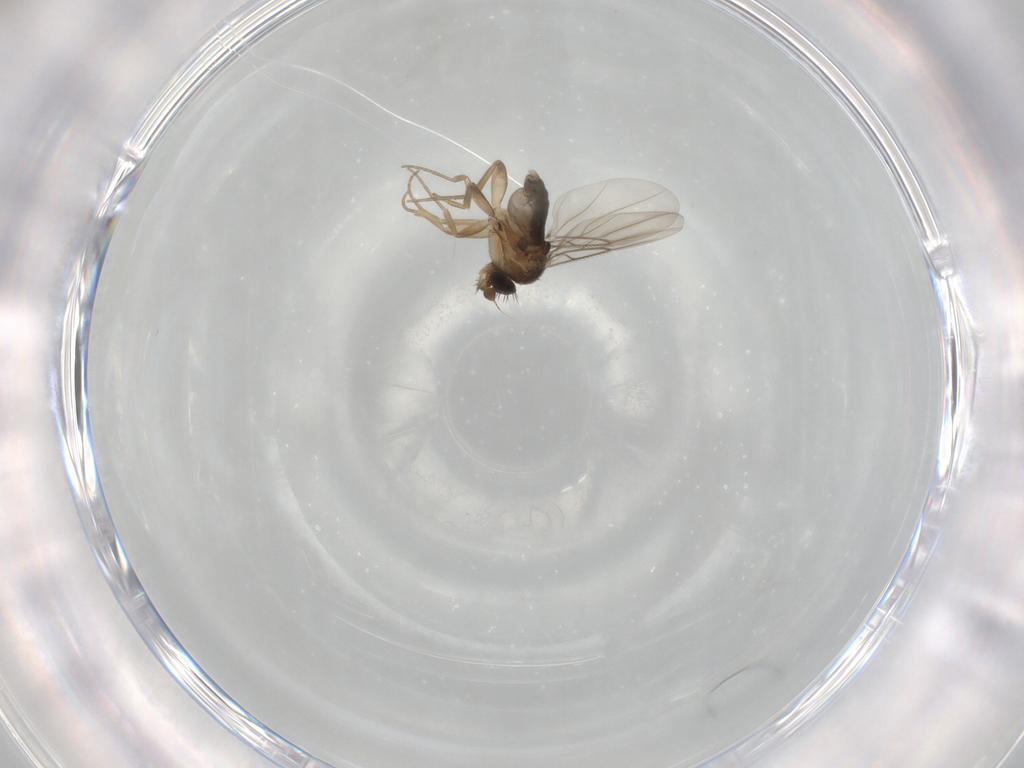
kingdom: Animalia
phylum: Arthropoda
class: Insecta
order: Diptera
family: Phoridae
